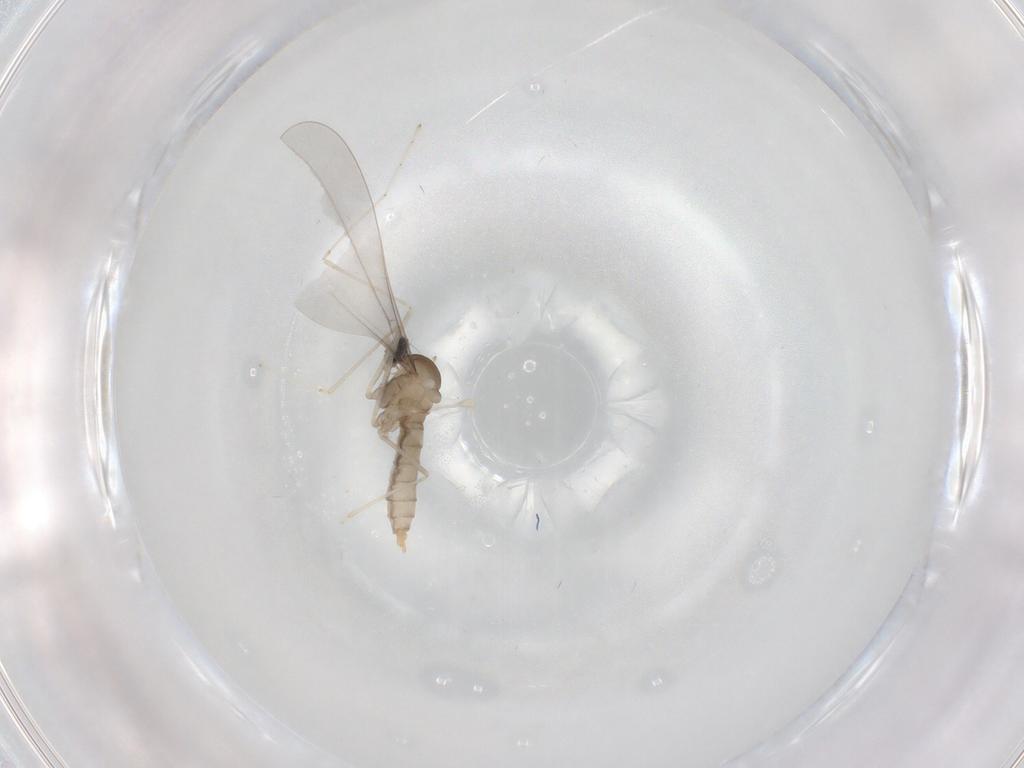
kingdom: Animalia
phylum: Arthropoda
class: Insecta
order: Diptera
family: Cecidomyiidae
